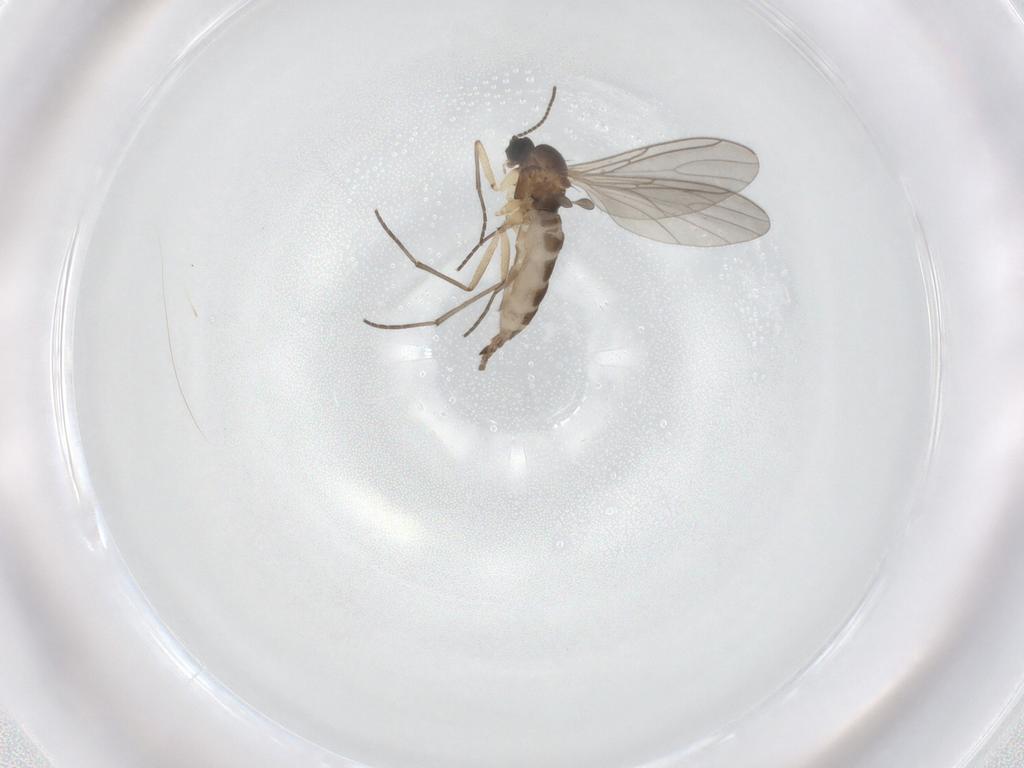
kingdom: Animalia
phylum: Arthropoda
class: Insecta
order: Diptera
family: Sciaridae
